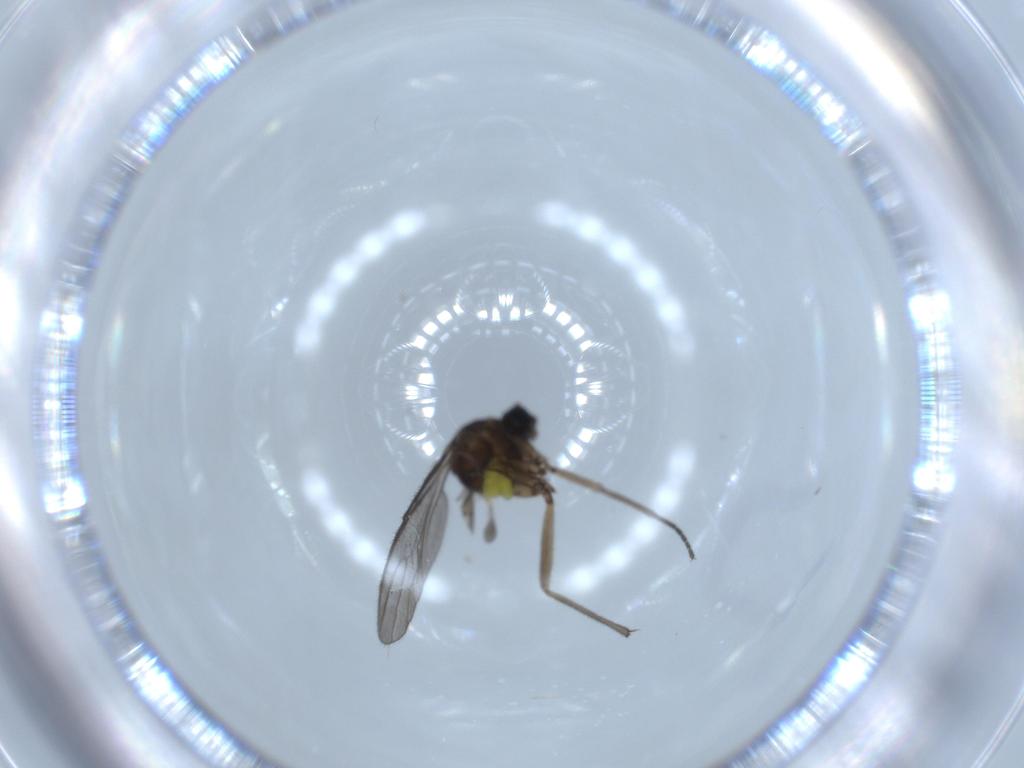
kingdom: Animalia
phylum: Arthropoda
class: Insecta
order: Diptera
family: Sciaridae
